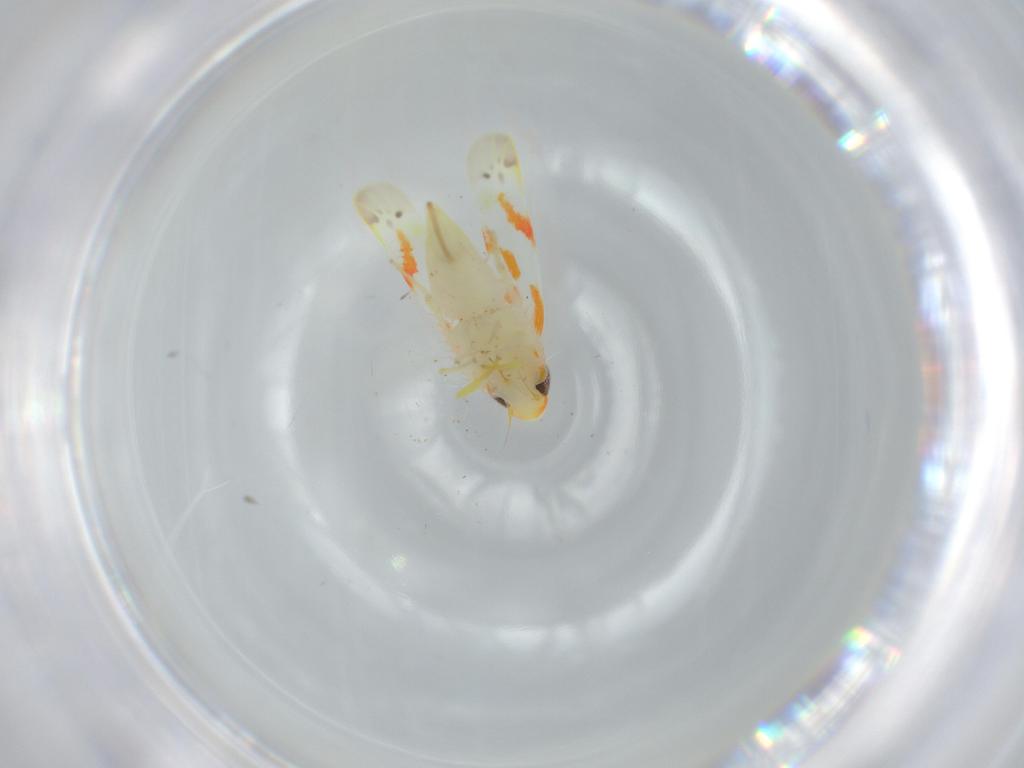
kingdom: Animalia
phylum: Arthropoda
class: Insecta
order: Hemiptera
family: Cicadellidae
